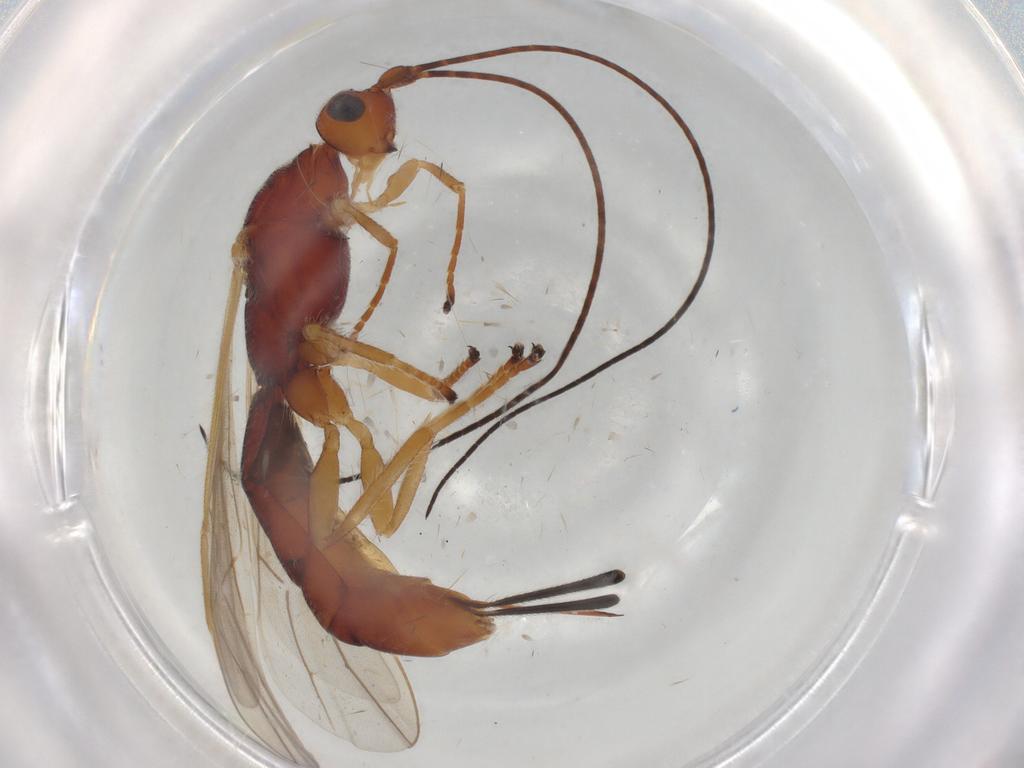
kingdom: Animalia
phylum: Arthropoda
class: Insecta
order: Hymenoptera
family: Braconidae
